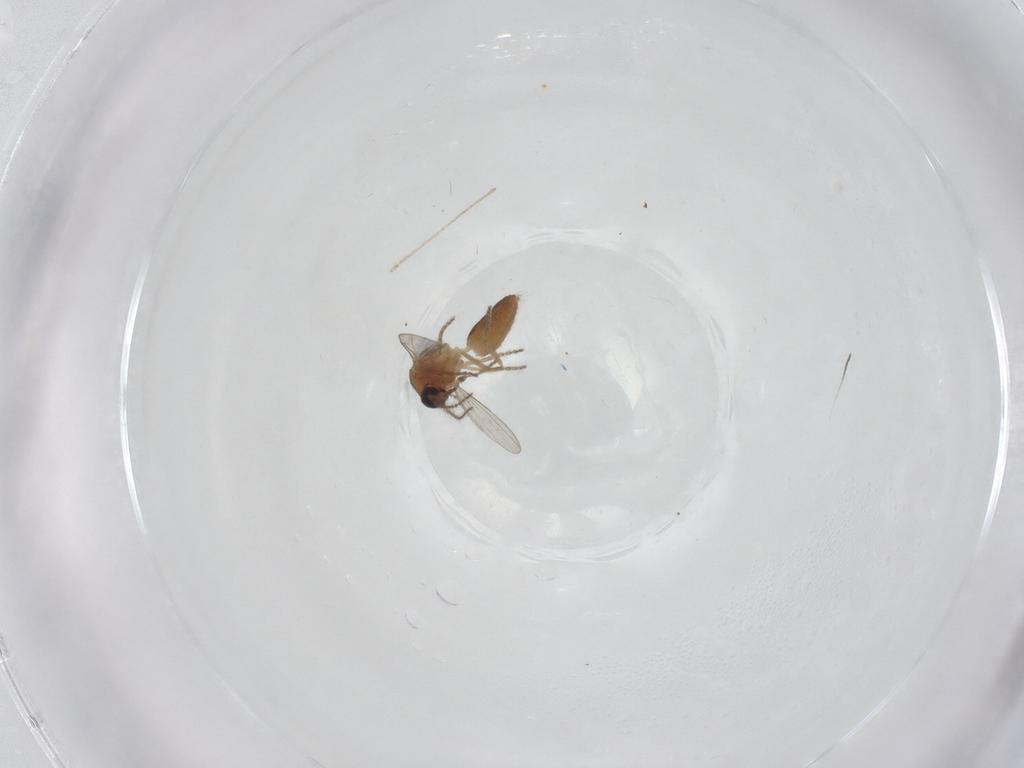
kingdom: Animalia
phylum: Arthropoda
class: Insecta
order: Diptera
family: Ceratopogonidae
